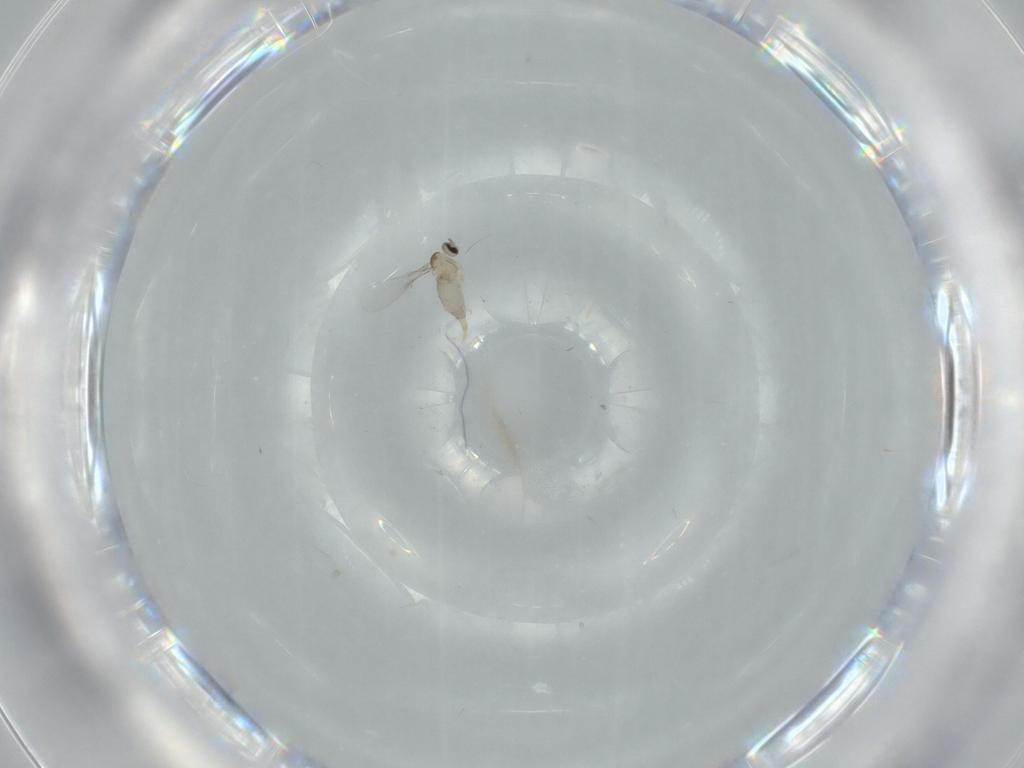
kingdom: Animalia
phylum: Arthropoda
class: Insecta
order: Diptera
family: Cecidomyiidae
